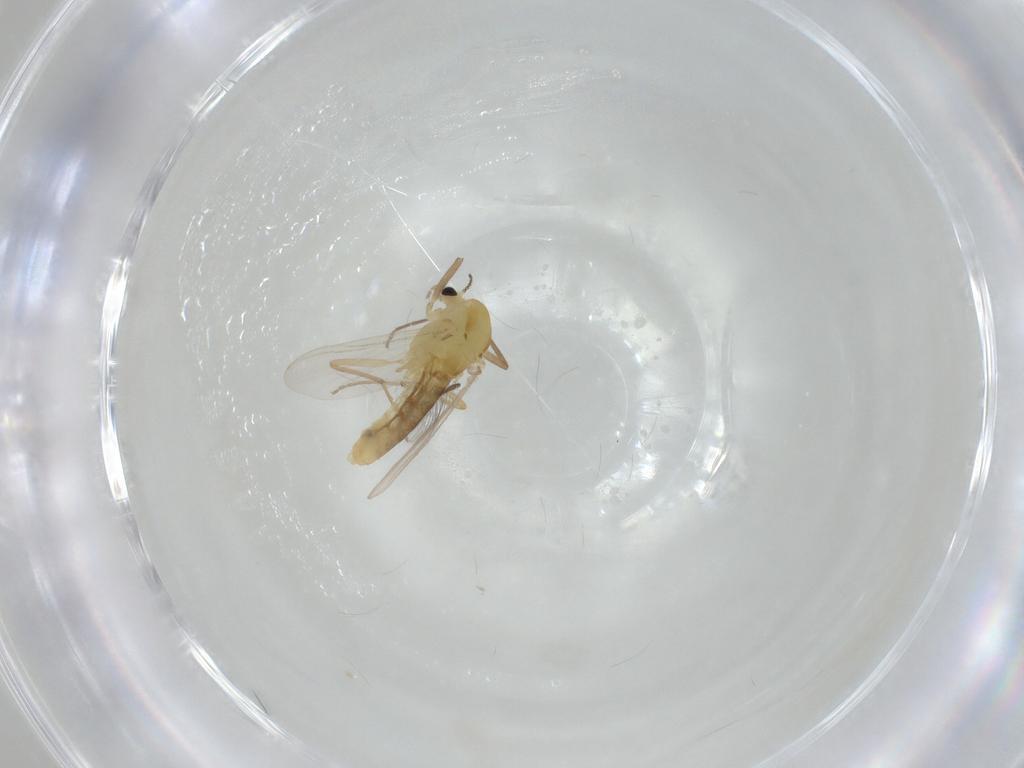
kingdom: Animalia
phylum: Arthropoda
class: Insecta
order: Diptera
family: Chironomidae
